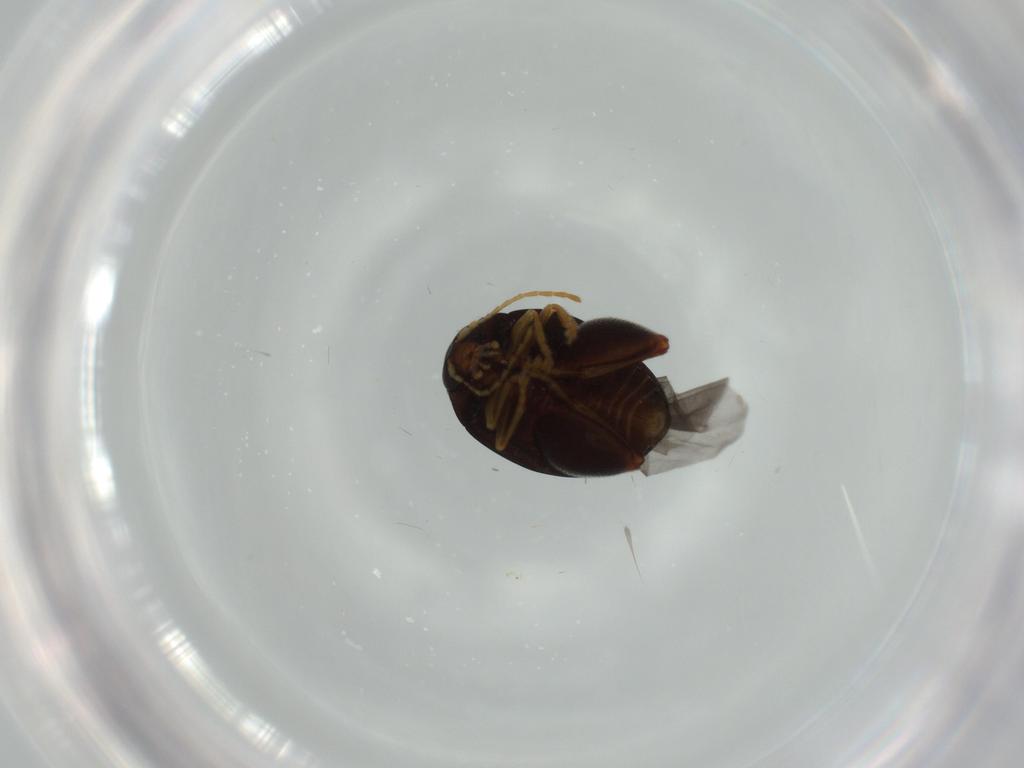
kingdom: Animalia
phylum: Arthropoda
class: Insecta
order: Coleoptera
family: Chrysomelidae
